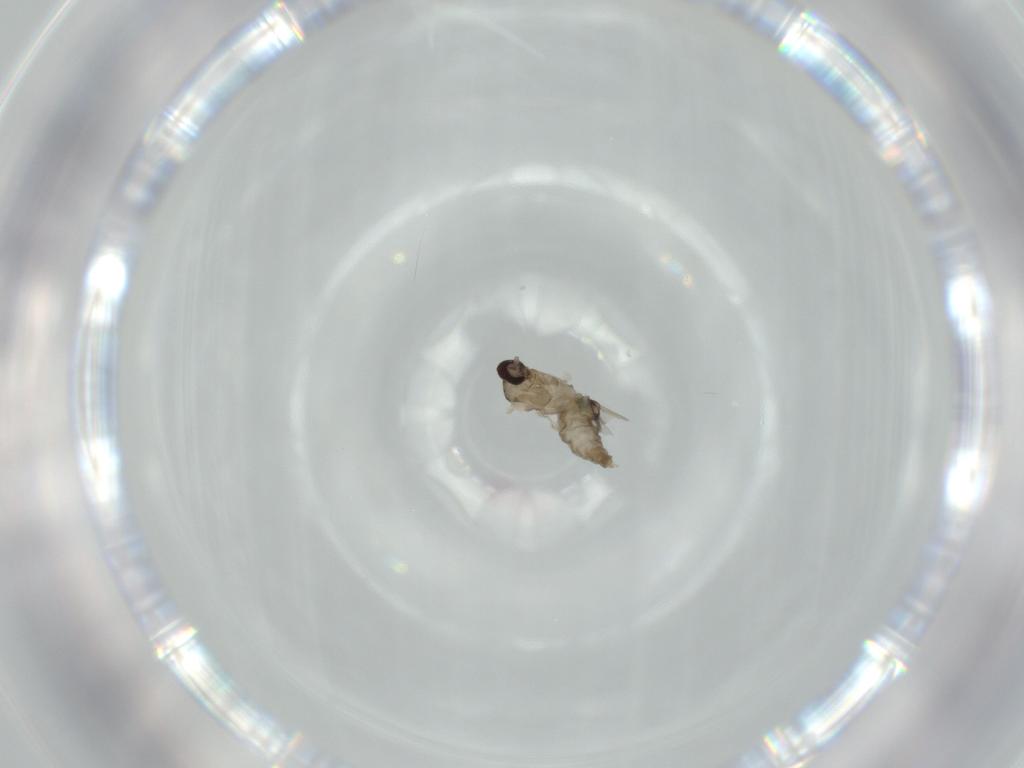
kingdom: Animalia
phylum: Arthropoda
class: Insecta
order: Diptera
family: Cecidomyiidae
